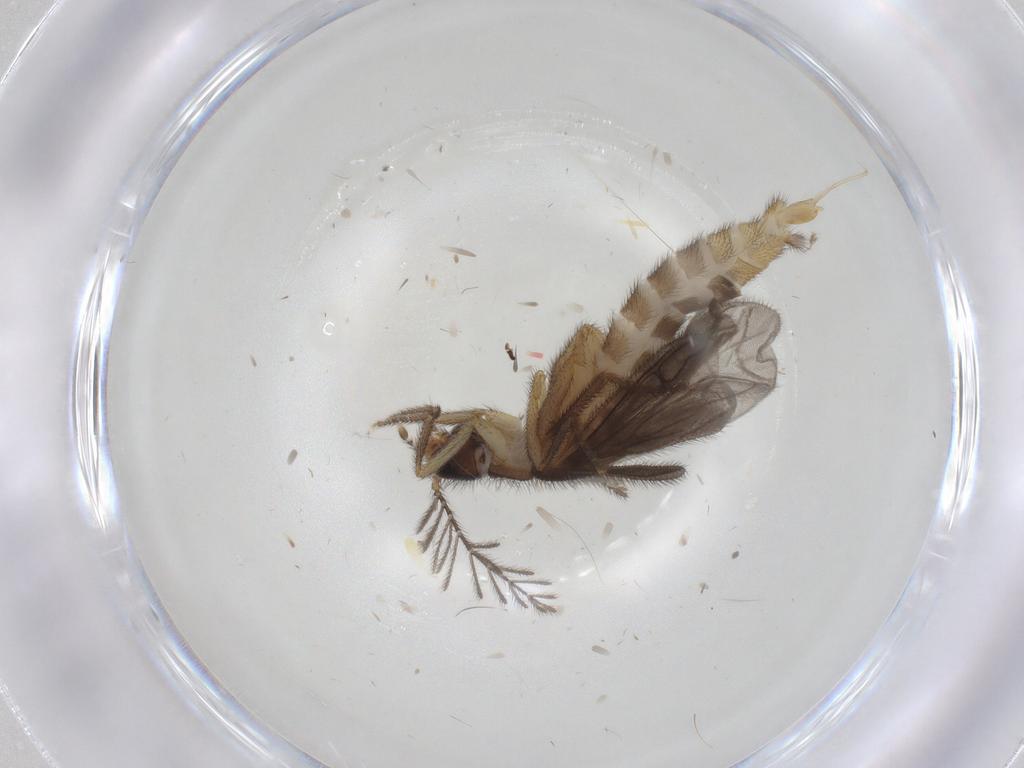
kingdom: Animalia
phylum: Arthropoda
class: Insecta
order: Coleoptera
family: Phengodidae
